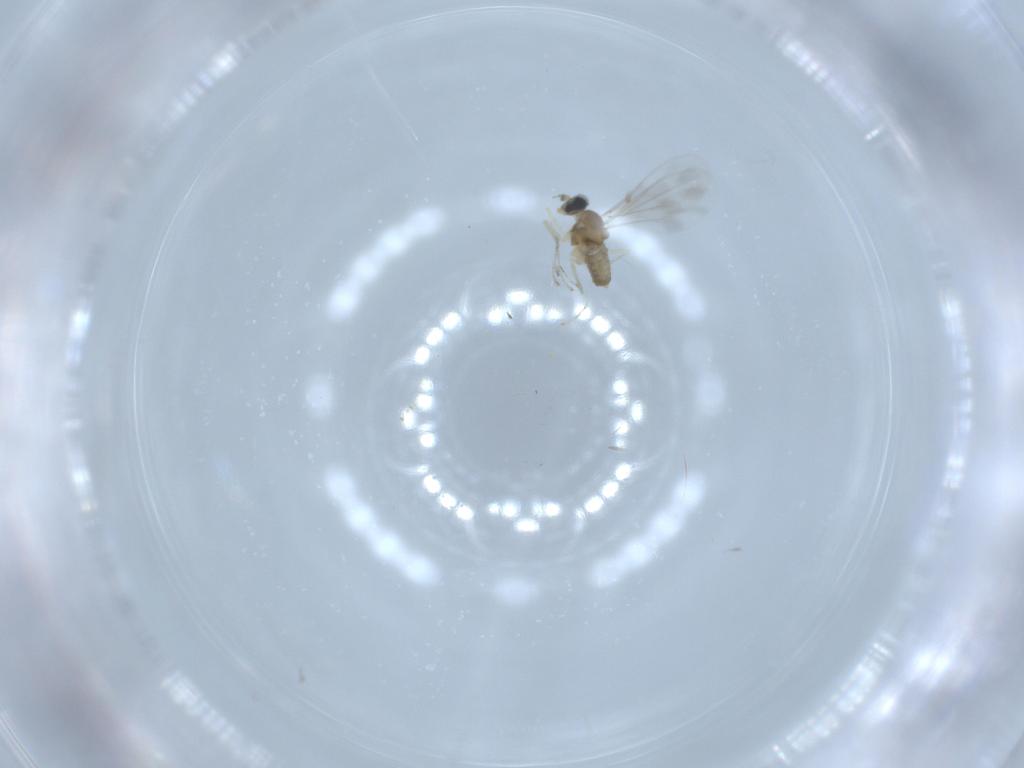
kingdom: Animalia
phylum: Arthropoda
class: Insecta
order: Diptera
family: Cecidomyiidae
